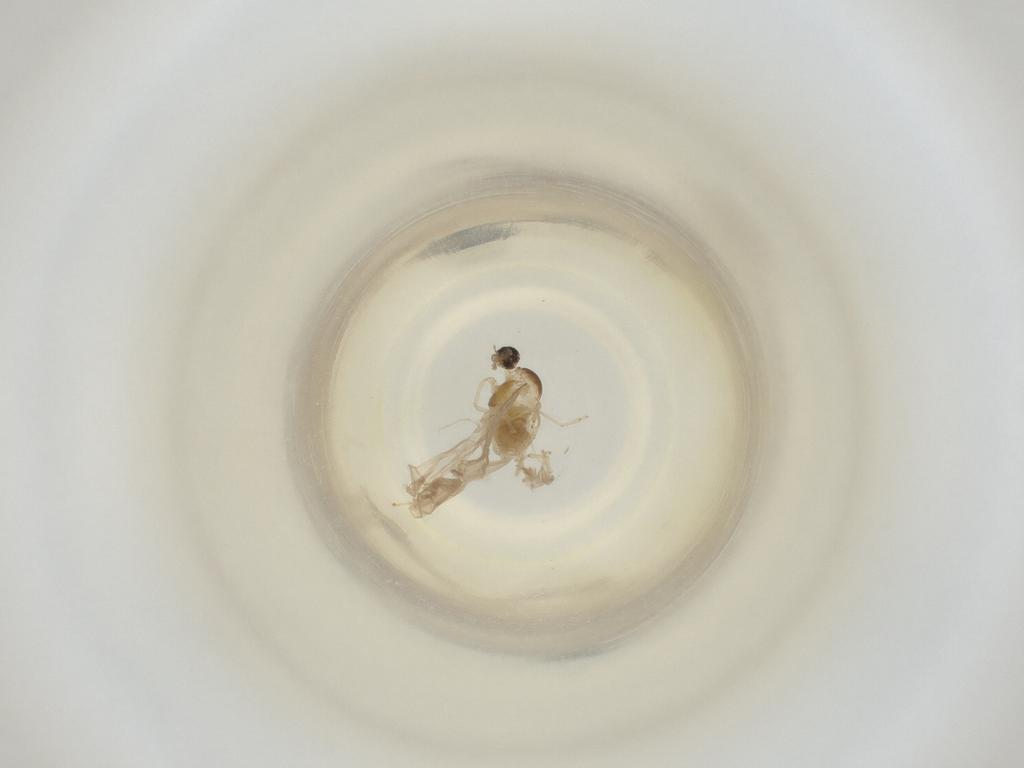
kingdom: Animalia
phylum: Arthropoda
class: Insecta
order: Diptera
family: Cecidomyiidae
